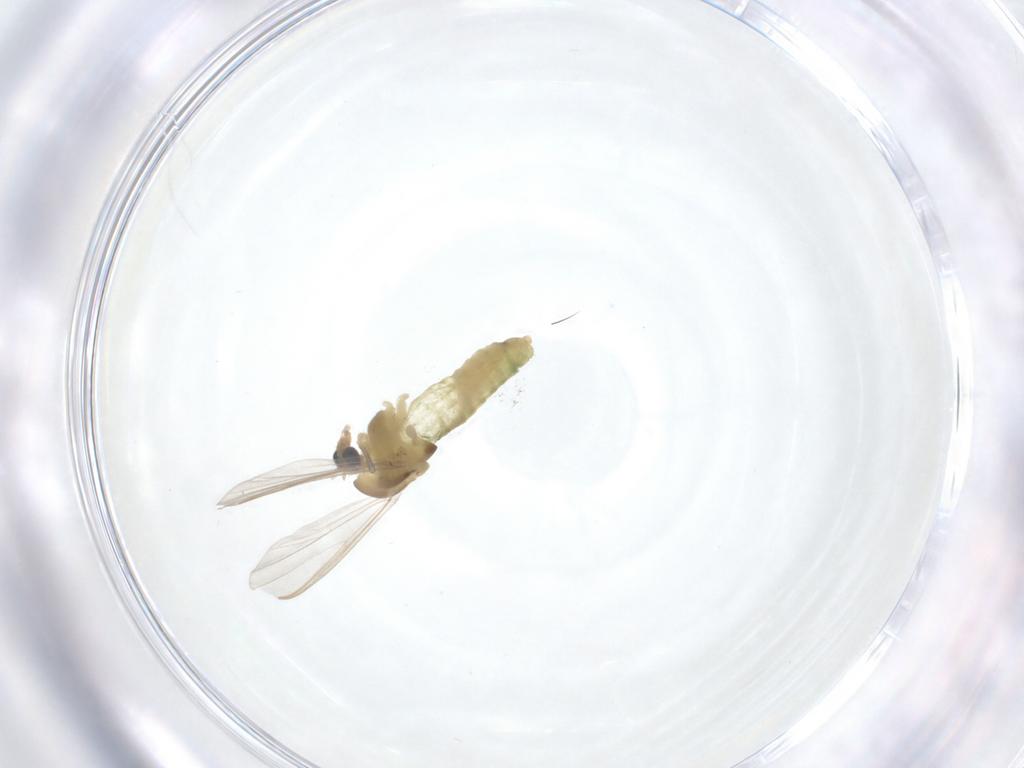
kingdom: Animalia
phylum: Arthropoda
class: Insecta
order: Diptera
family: Chironomidae
